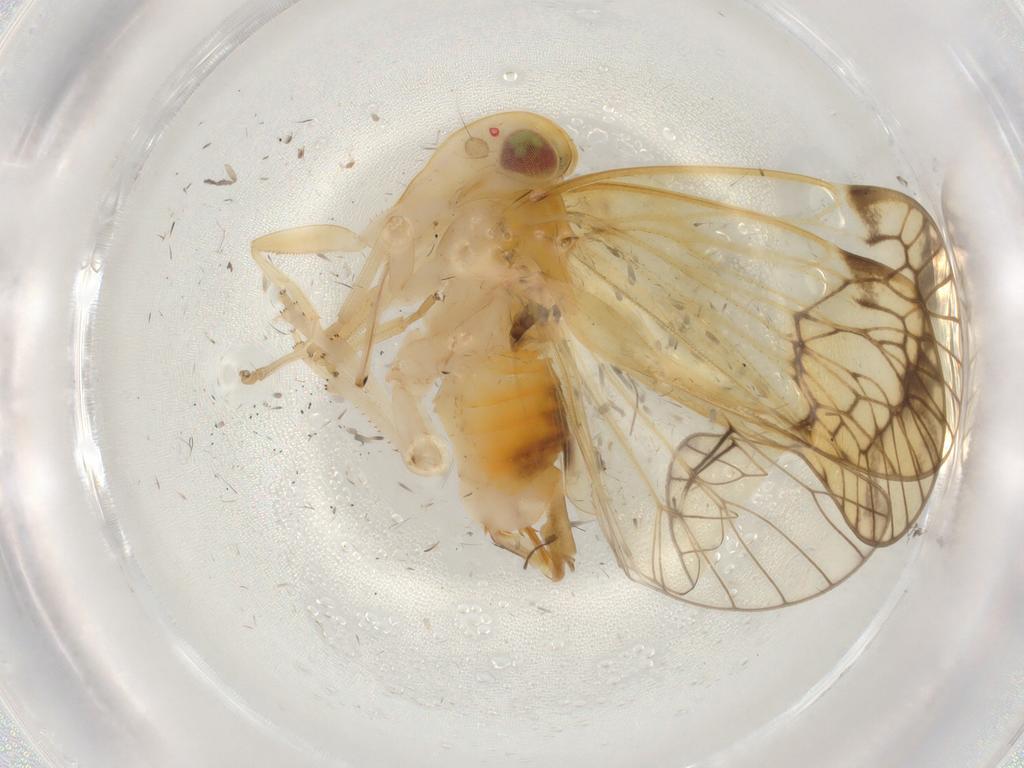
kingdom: Animalia
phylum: Arthropoda
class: Insecta
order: Hemiptera
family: Cixiidae
